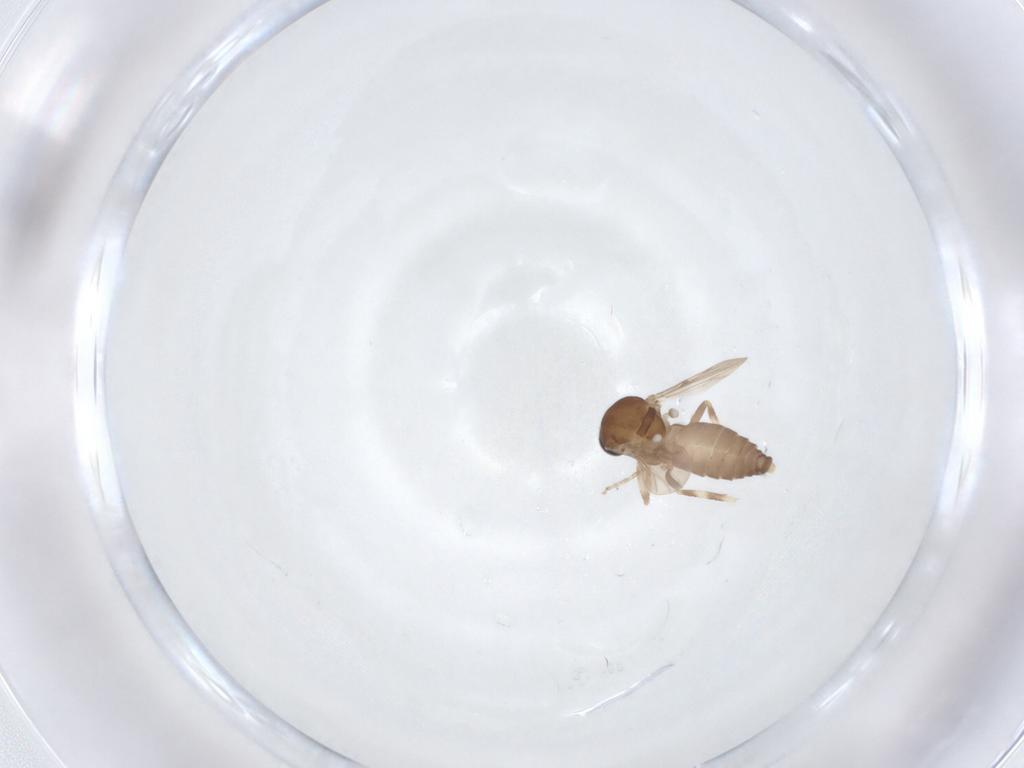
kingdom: Animalia
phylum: Arthropoda
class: Insecta
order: Diptera
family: Ceratopogonidae
